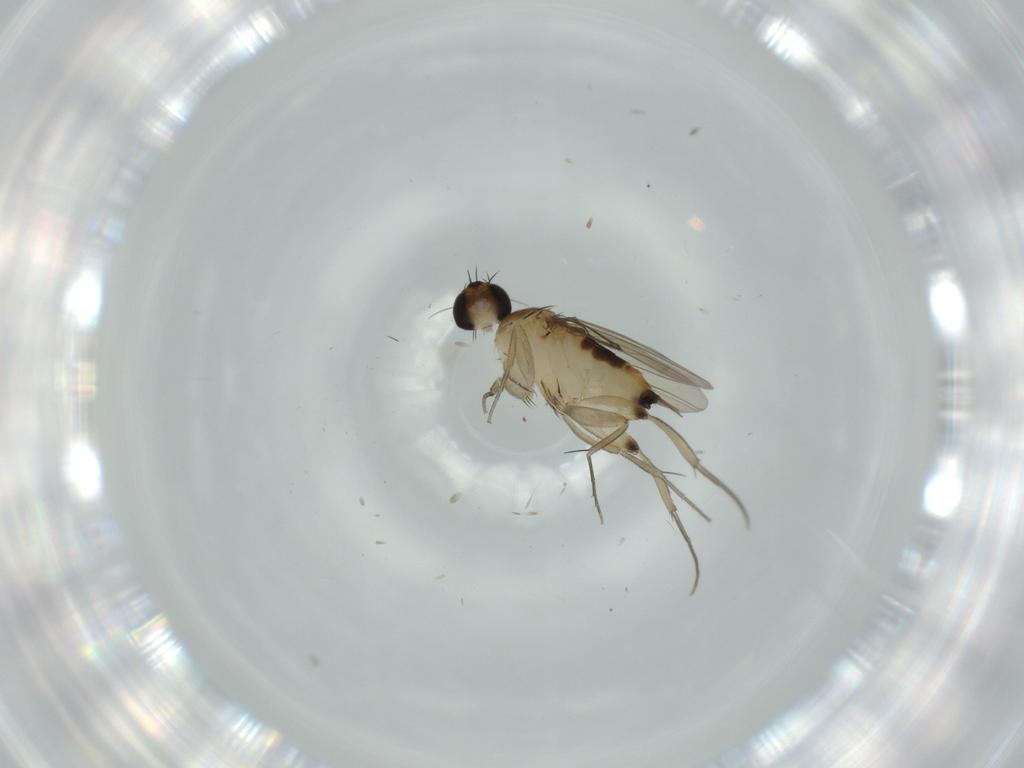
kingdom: Animalia
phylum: Arthropoda
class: Insecta
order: Diptera
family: Phoridae
